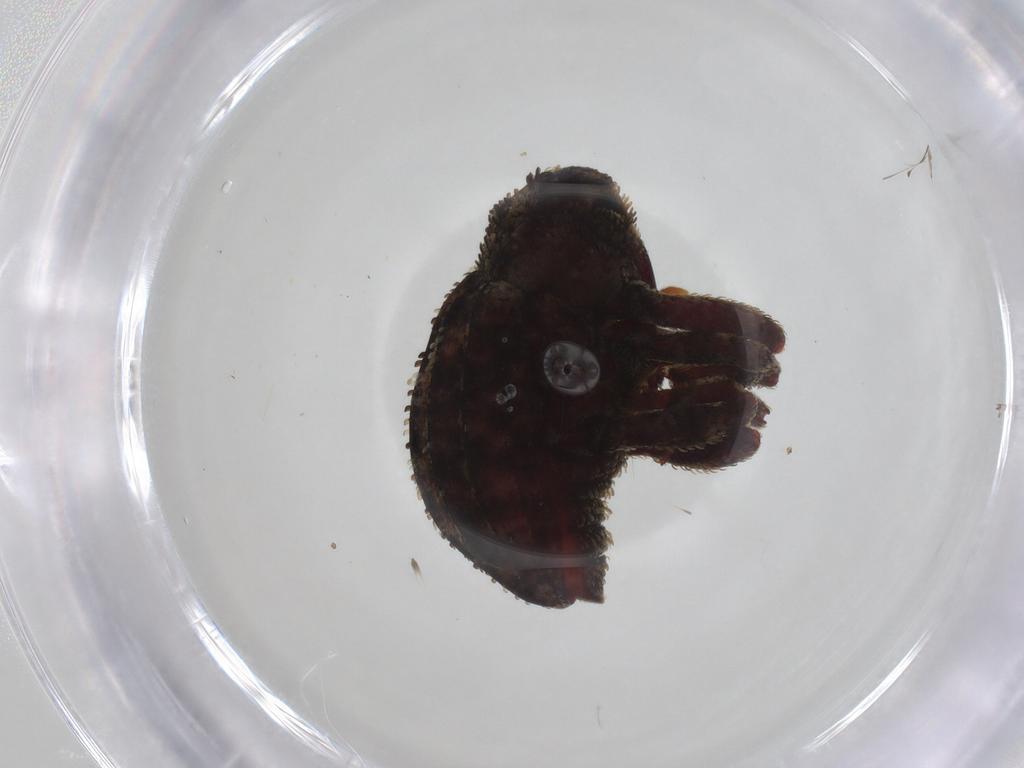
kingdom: Animalia
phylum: Arthropoda
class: Insecta
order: Coleoptera
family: Curculionidae
